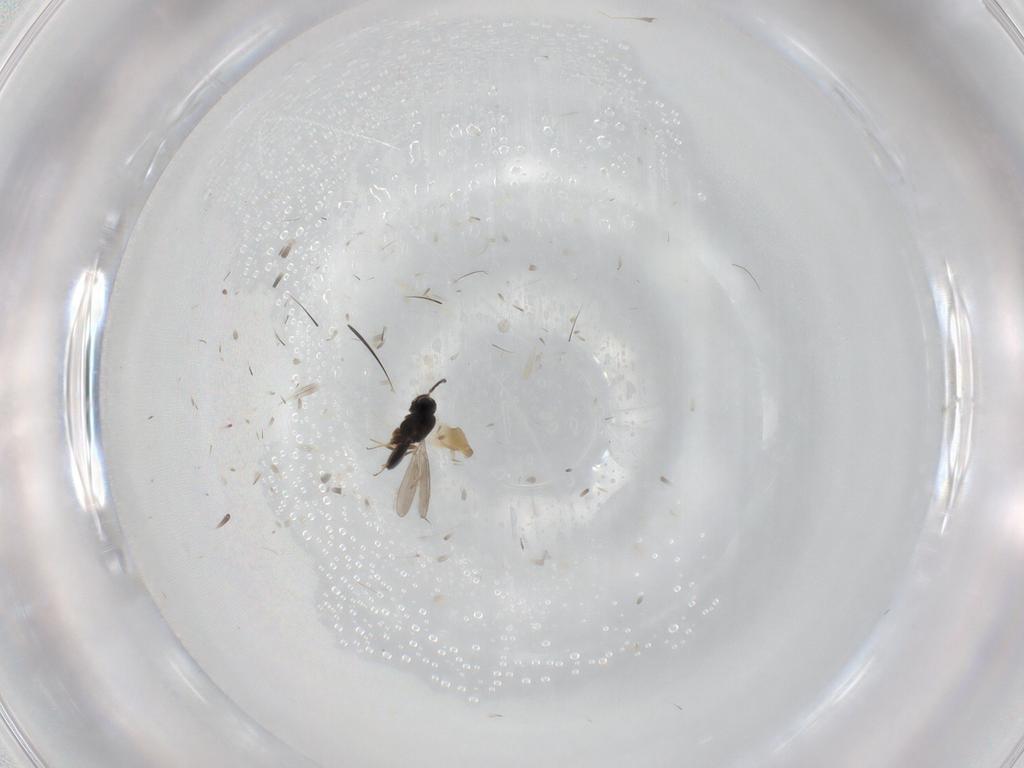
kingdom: Animalia
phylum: Arthropoda
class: Insecta
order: Hymenoptera
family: Scelionidae
